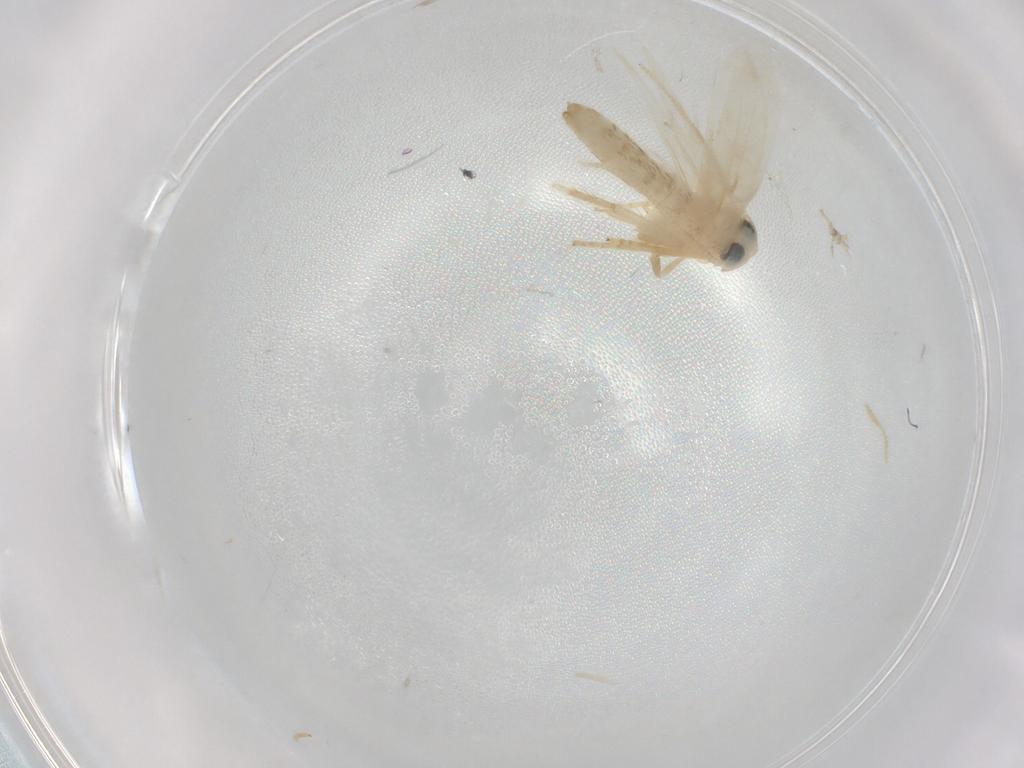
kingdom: Animalia
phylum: Arthropoda
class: Insecta
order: Lepidoptera
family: Opostegidae
